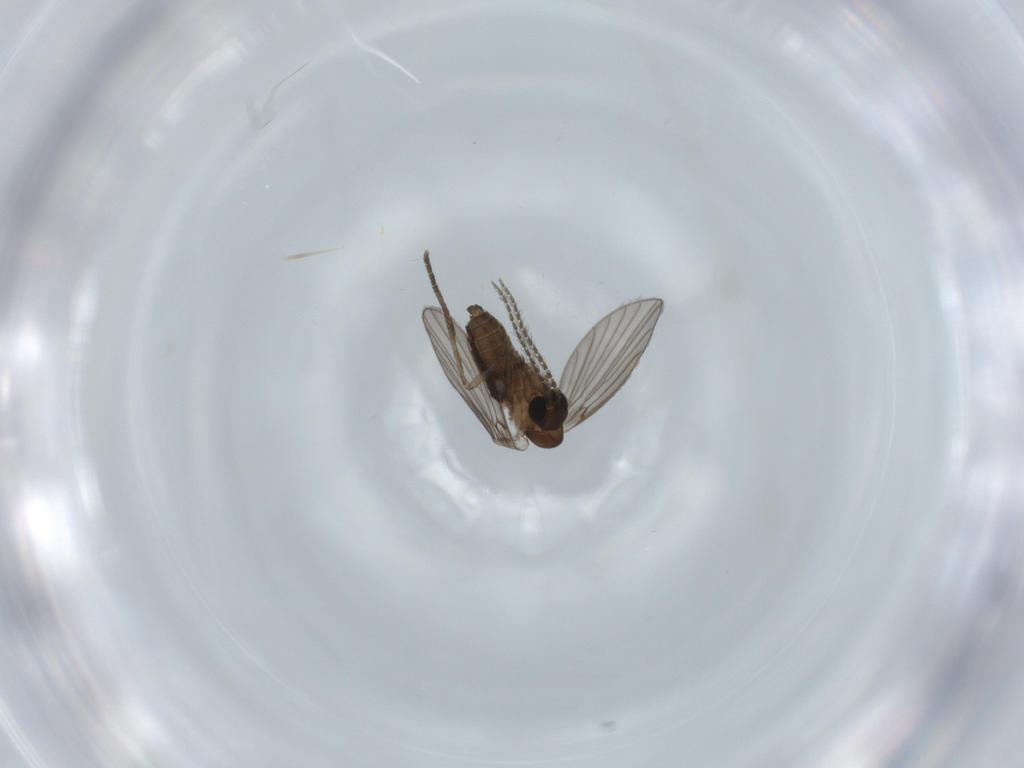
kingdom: Animalia
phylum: Arthropoda
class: Insecta
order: Diptera
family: Psychodidae
